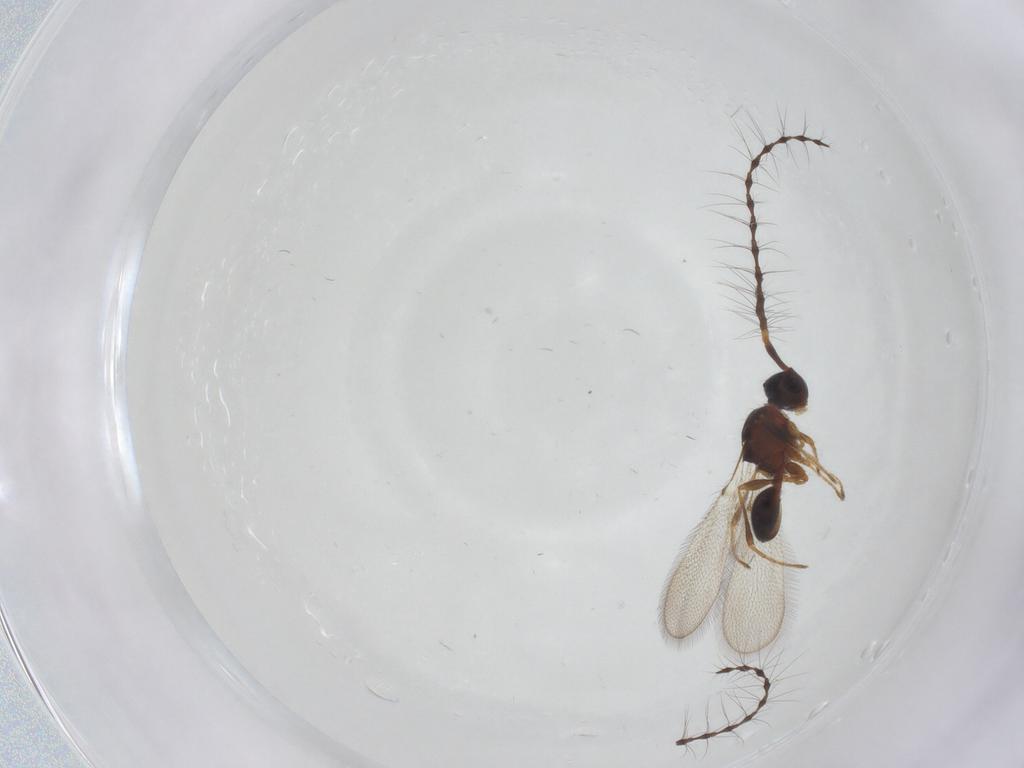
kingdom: Animalia
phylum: Arthropoda
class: Insecta
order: Hymenoptera
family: Diapriidae
